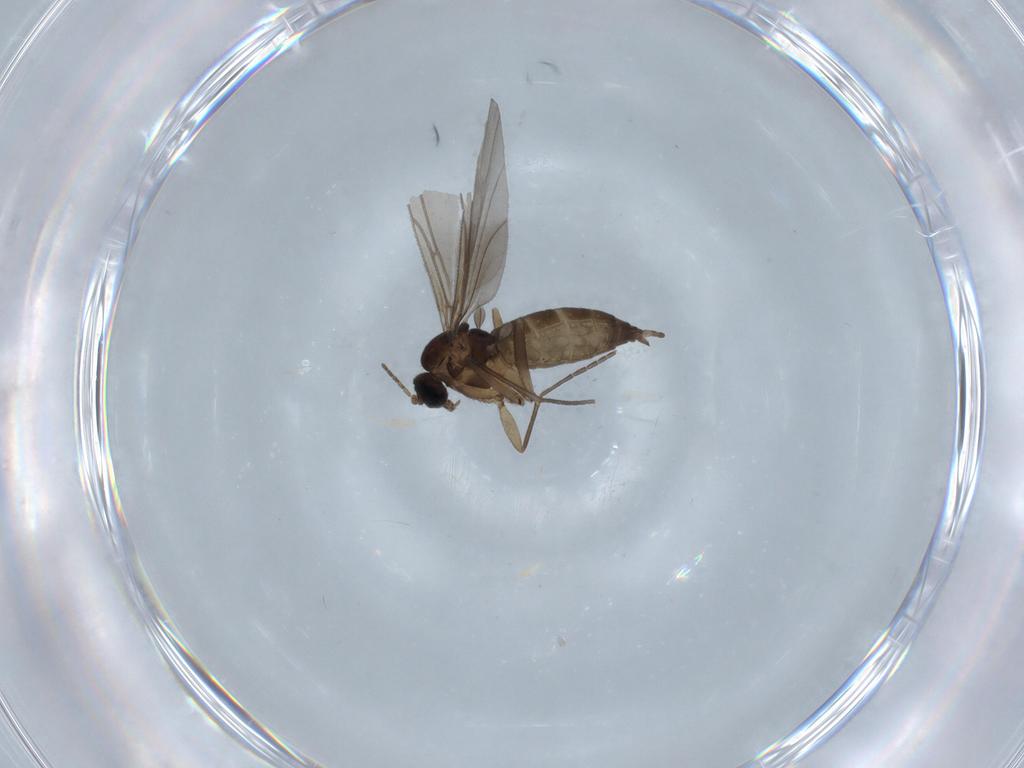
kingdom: Animalia
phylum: Arthropoda
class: Insecta
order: Diptera
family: Sciaridae
